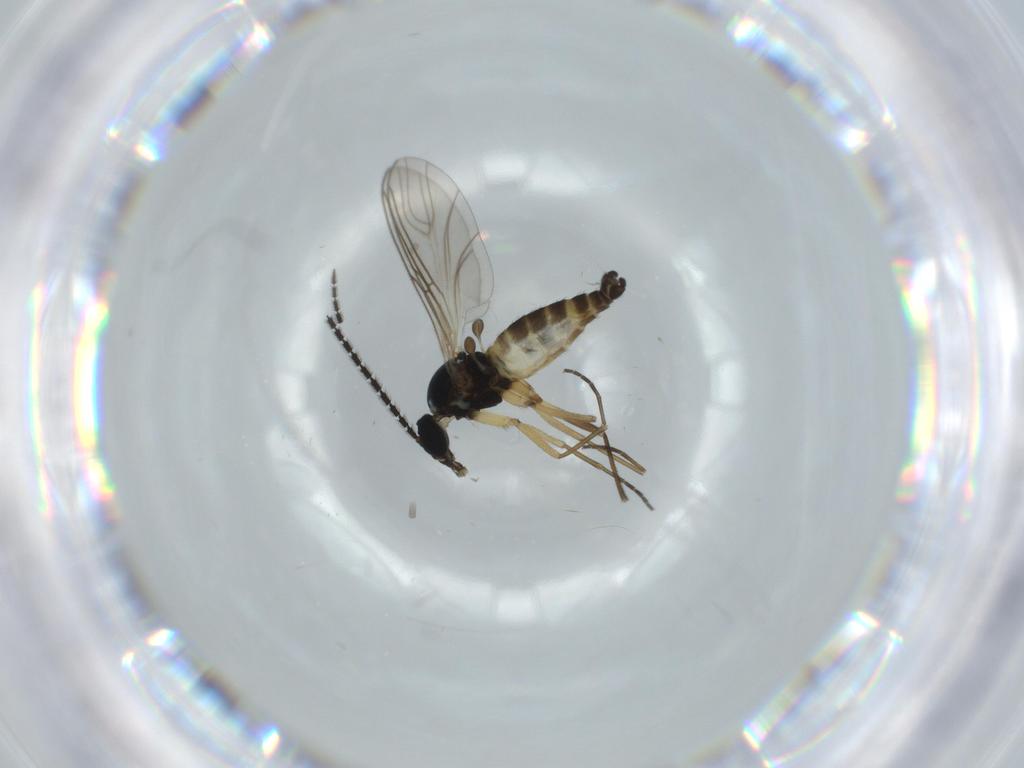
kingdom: Animalia
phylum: Arthropoda
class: Insecta
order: Diptera
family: Sciaridae
